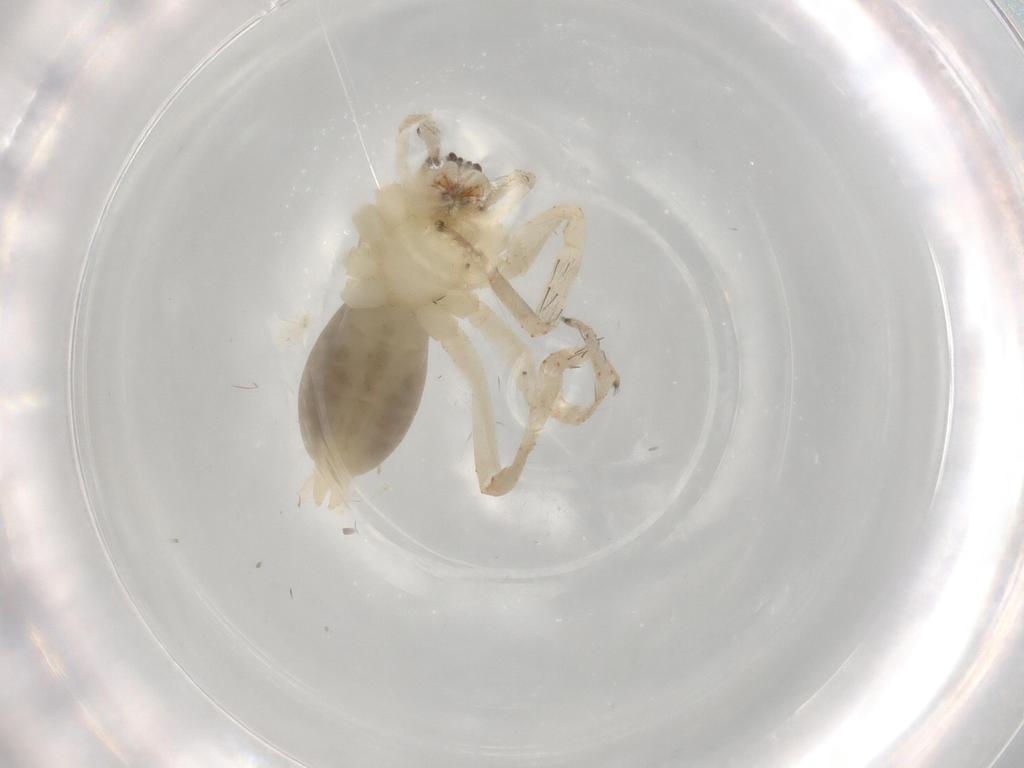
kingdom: Animalia
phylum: Arthropoda
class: Arachnida
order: Araneae
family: Anyphaenidae
